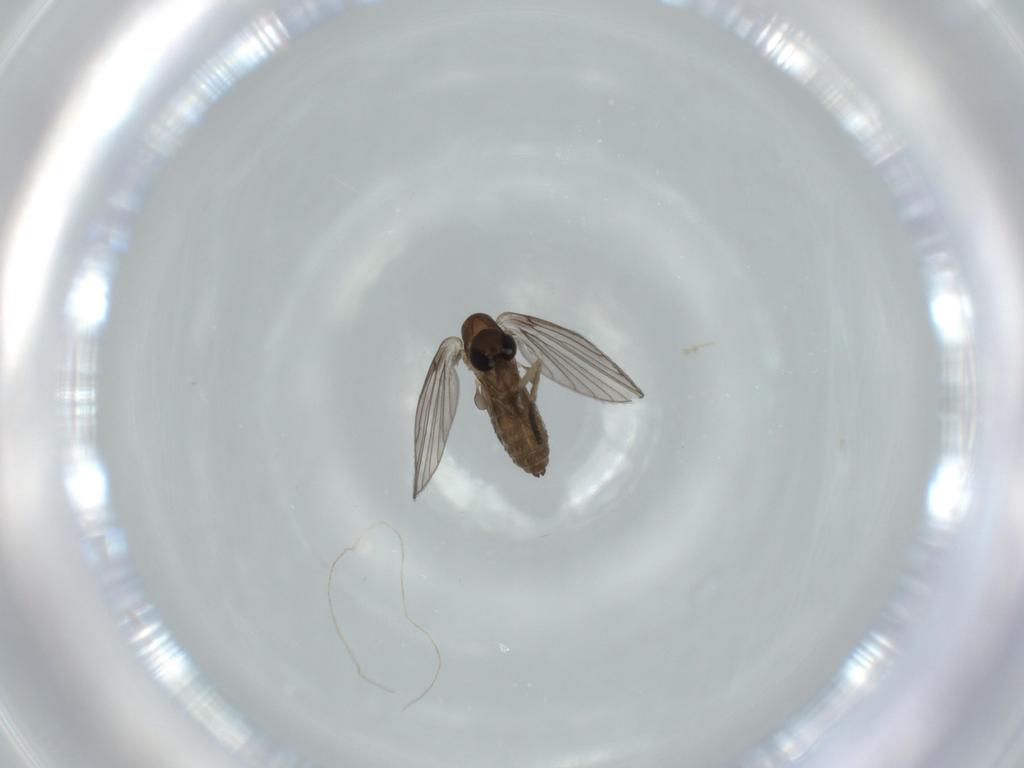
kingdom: Animalia
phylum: Arthropoda
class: Insecta
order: Diptera
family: Psychodidae
